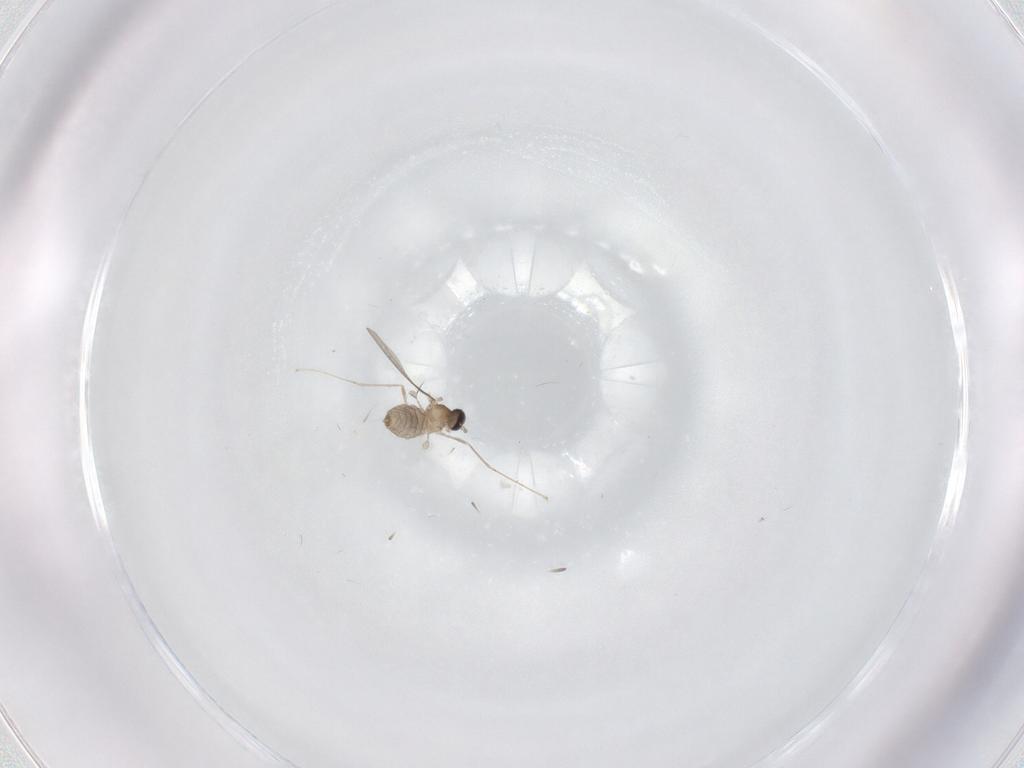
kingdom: Animalia
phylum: Arthropoda
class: Insecta
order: Diptera
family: Cecidomyiidae
